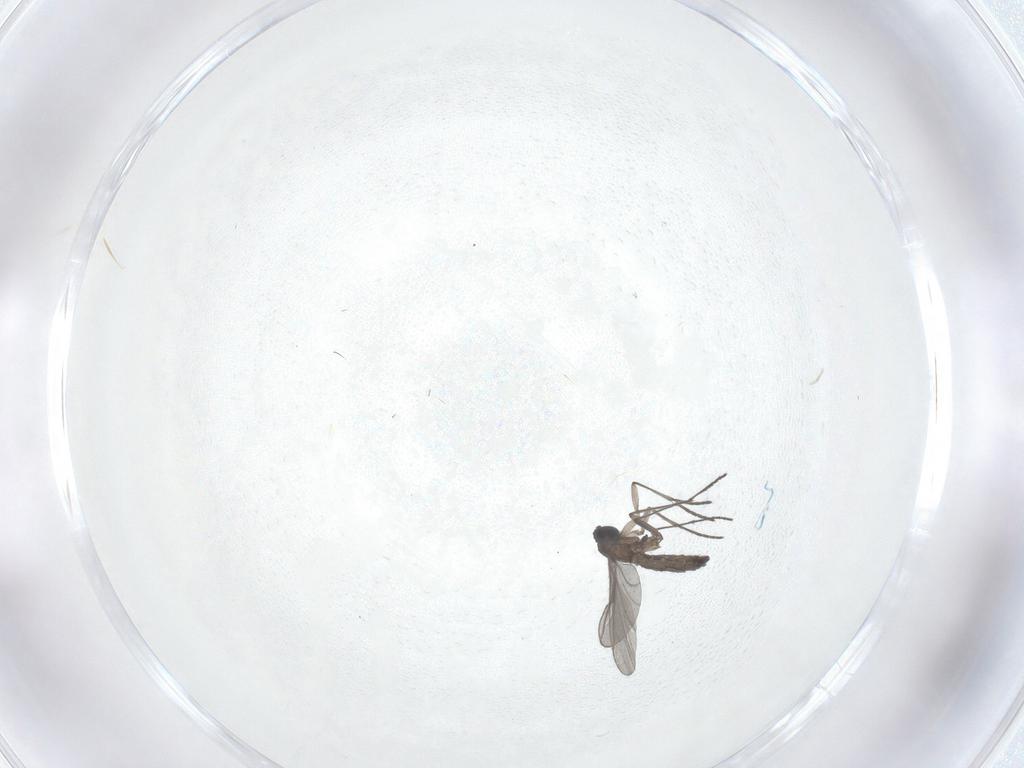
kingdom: Animalia
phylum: Arthropoda
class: Insecta
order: Diptera
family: Cecidomyiidae
